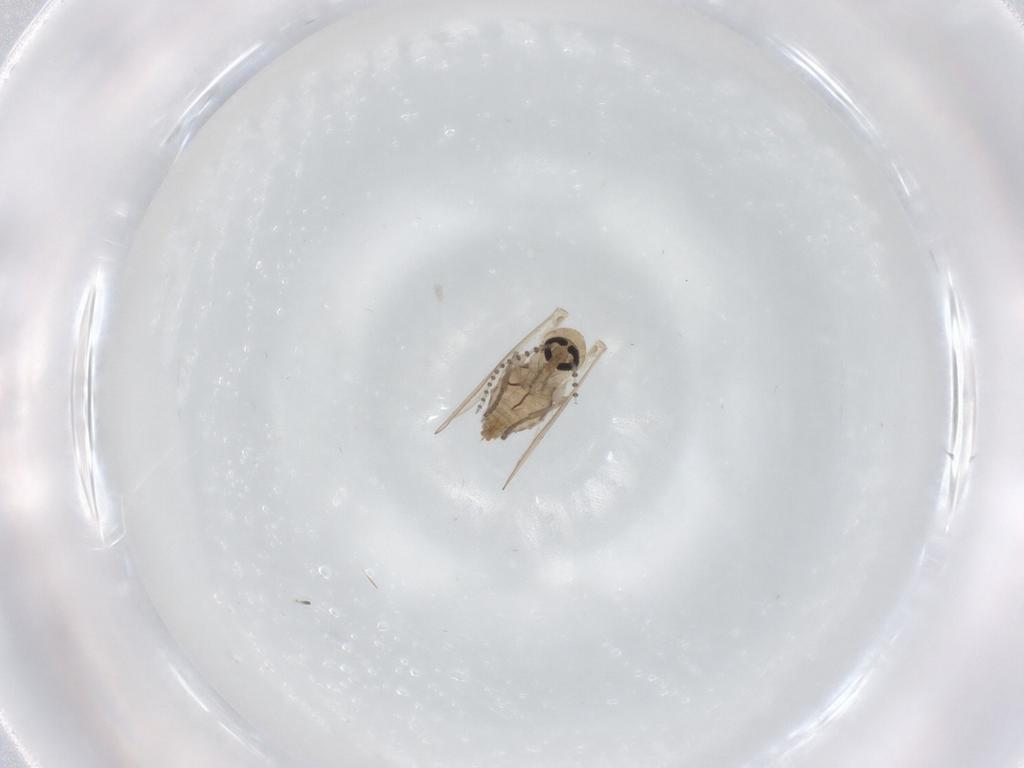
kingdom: Animalia
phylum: Arthropoda
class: Insecta
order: Diptera
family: Psychodidae
